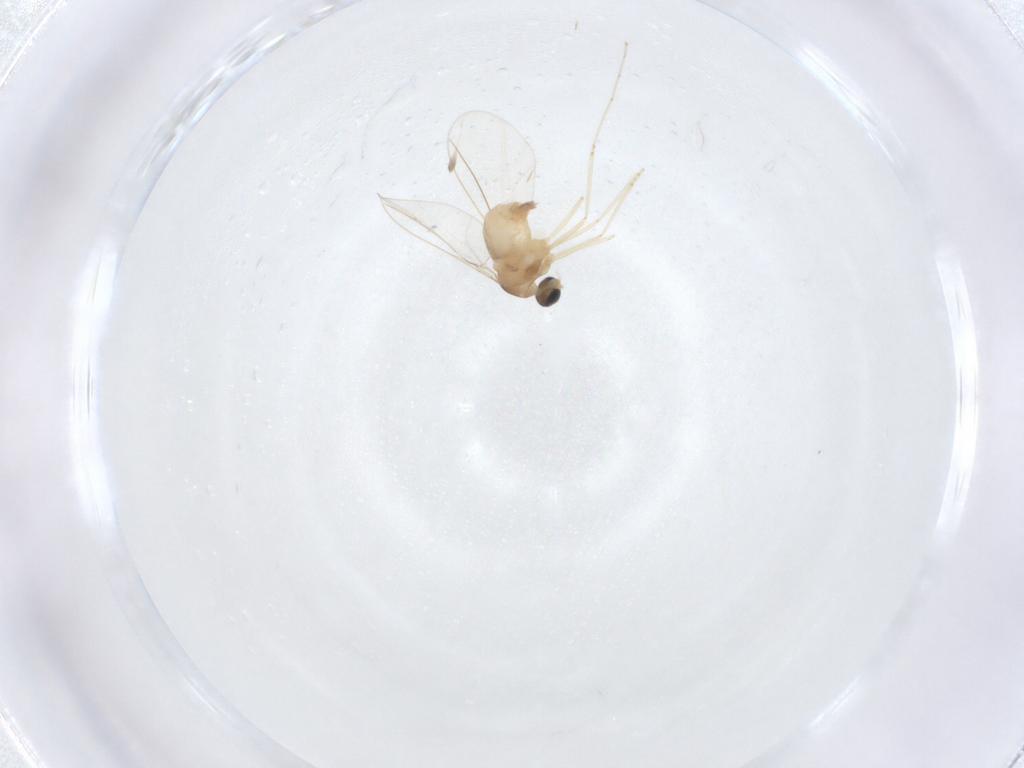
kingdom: Animalia
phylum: Arthropoda
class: Insecta
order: Diptera
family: Cecidomyiidae
